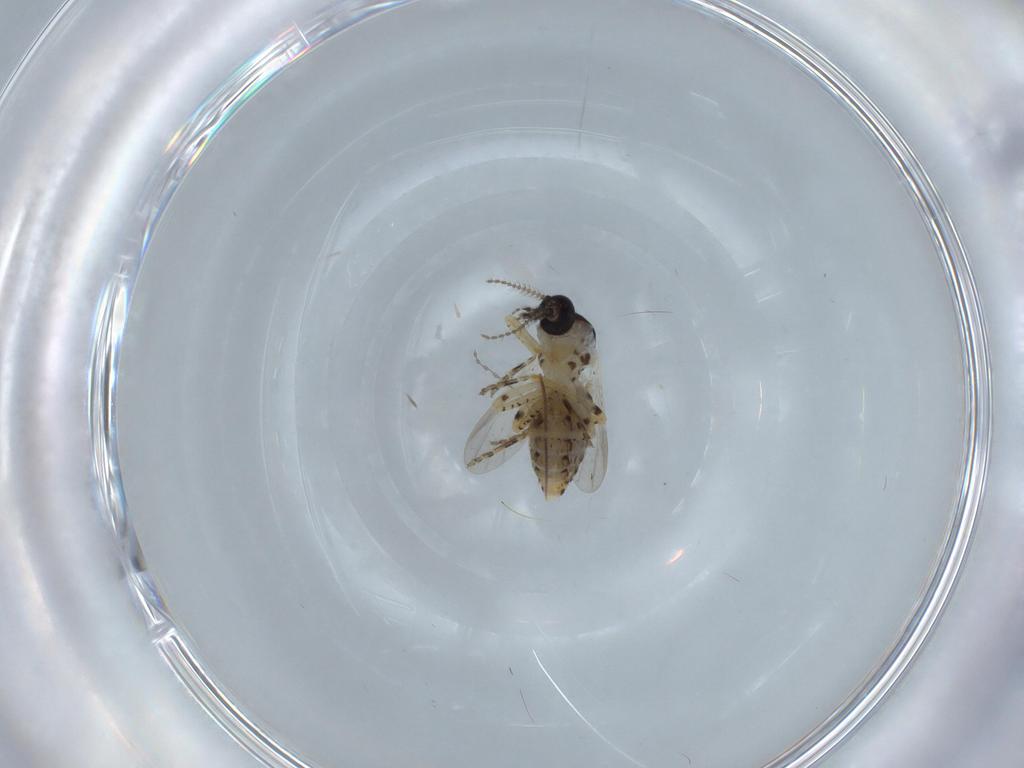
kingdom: Animalia
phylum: Arthropoda
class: Insecta
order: Diptera
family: Ceratopogonidae
